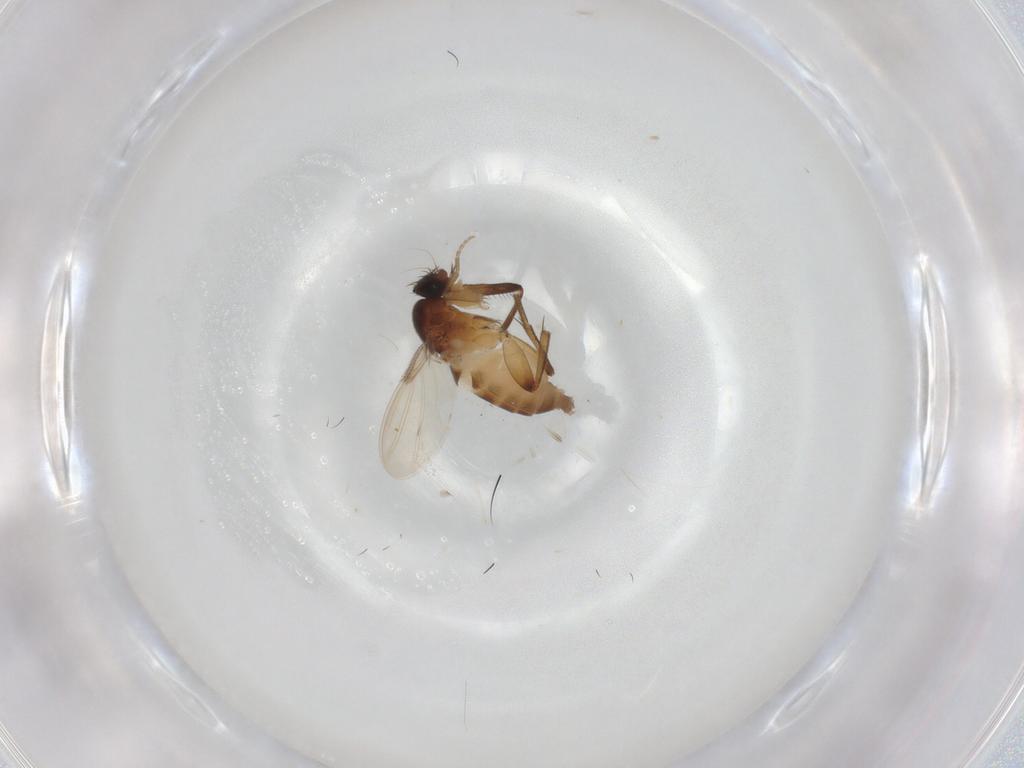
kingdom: Animalia
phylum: Arthropoda
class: Insecta
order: Diptera
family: Phoridae
